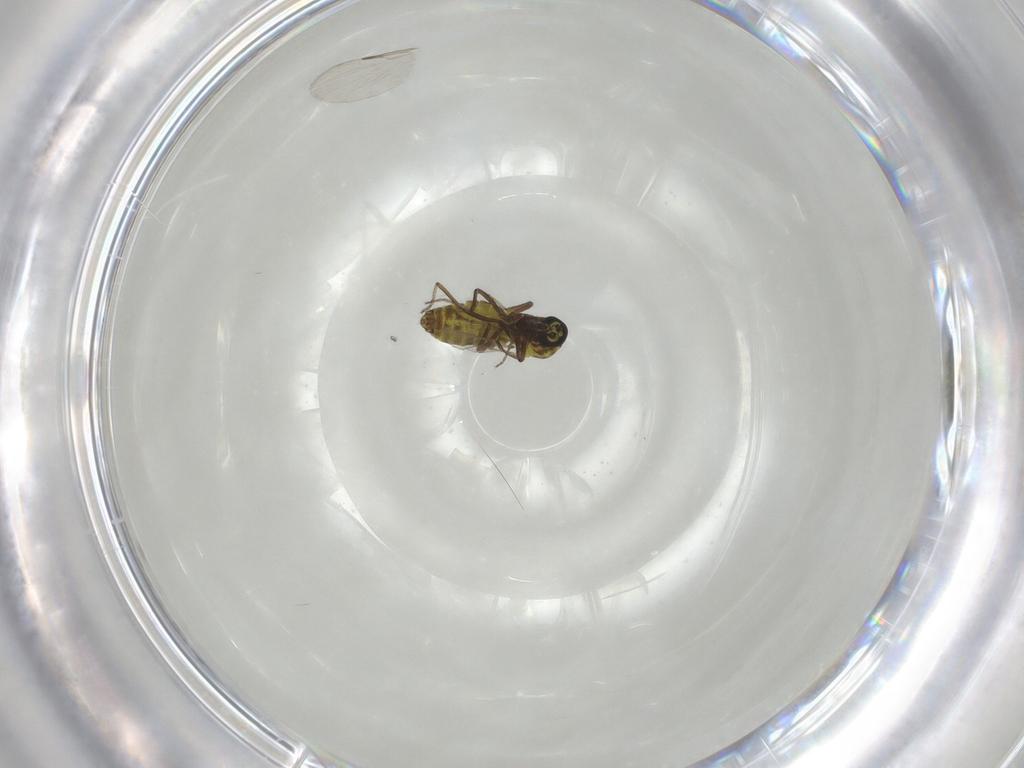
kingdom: Animalia
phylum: Arthropoda
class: Insecta
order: Diptera
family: Ceratopogonidae
